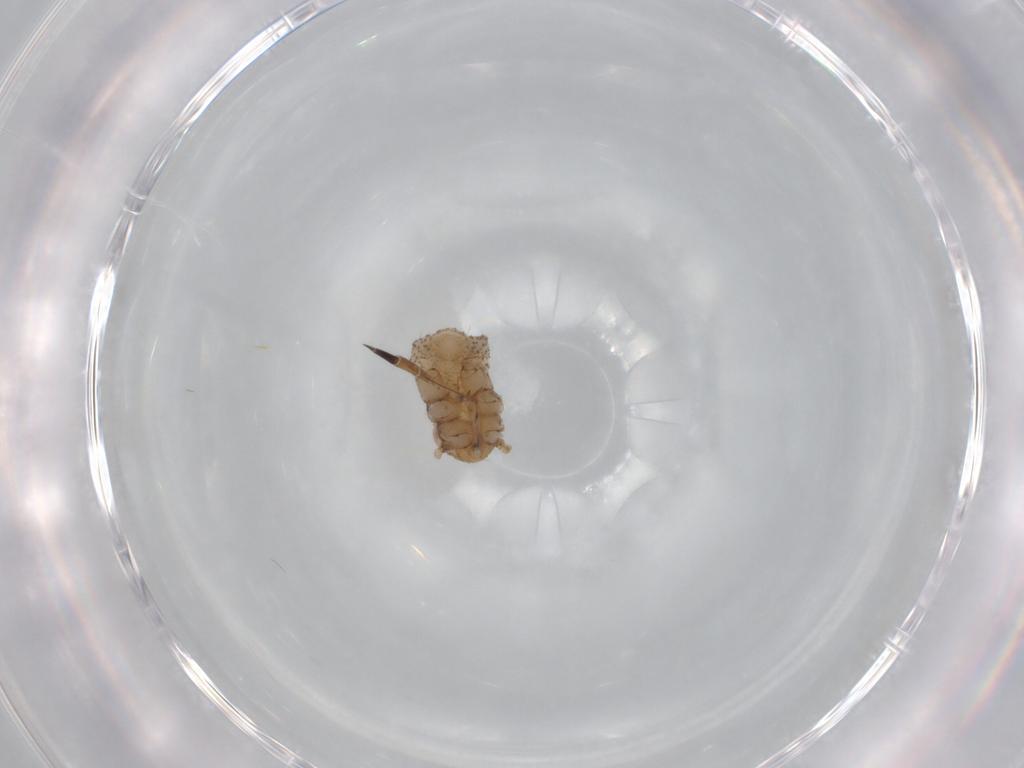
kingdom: Animalia
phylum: Arthropoda
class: Insecta
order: Hemiptera
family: Aphididae
